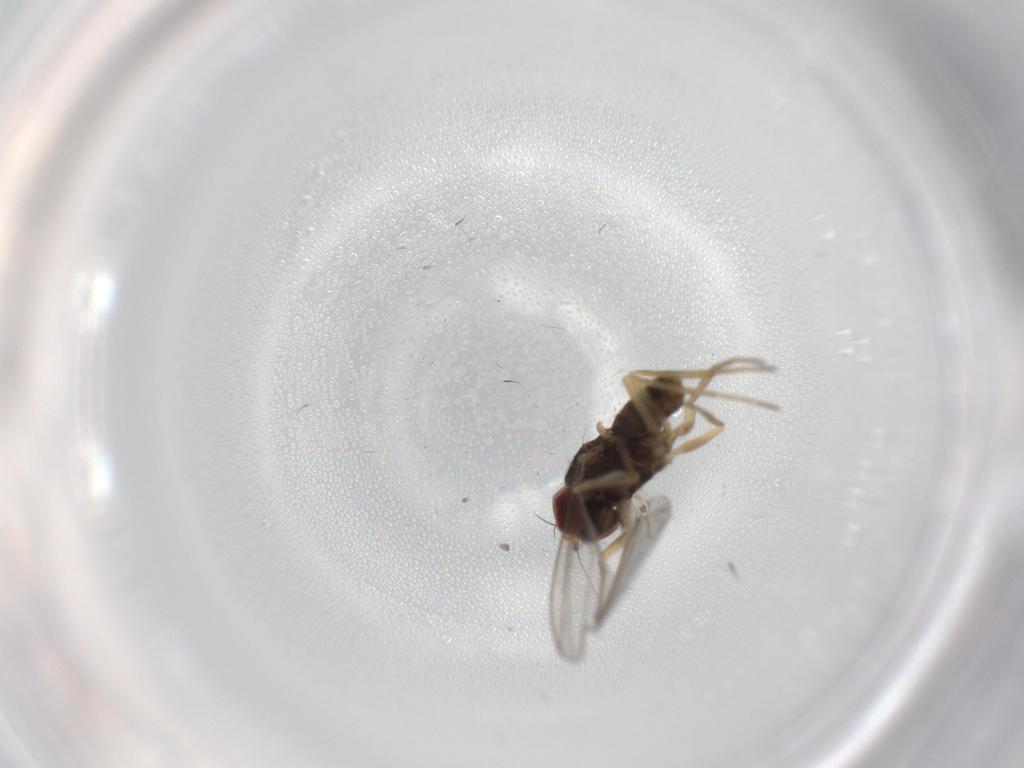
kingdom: Animalia
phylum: Arthropoda
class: Insecta
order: Diptera
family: Dolichopodidae
